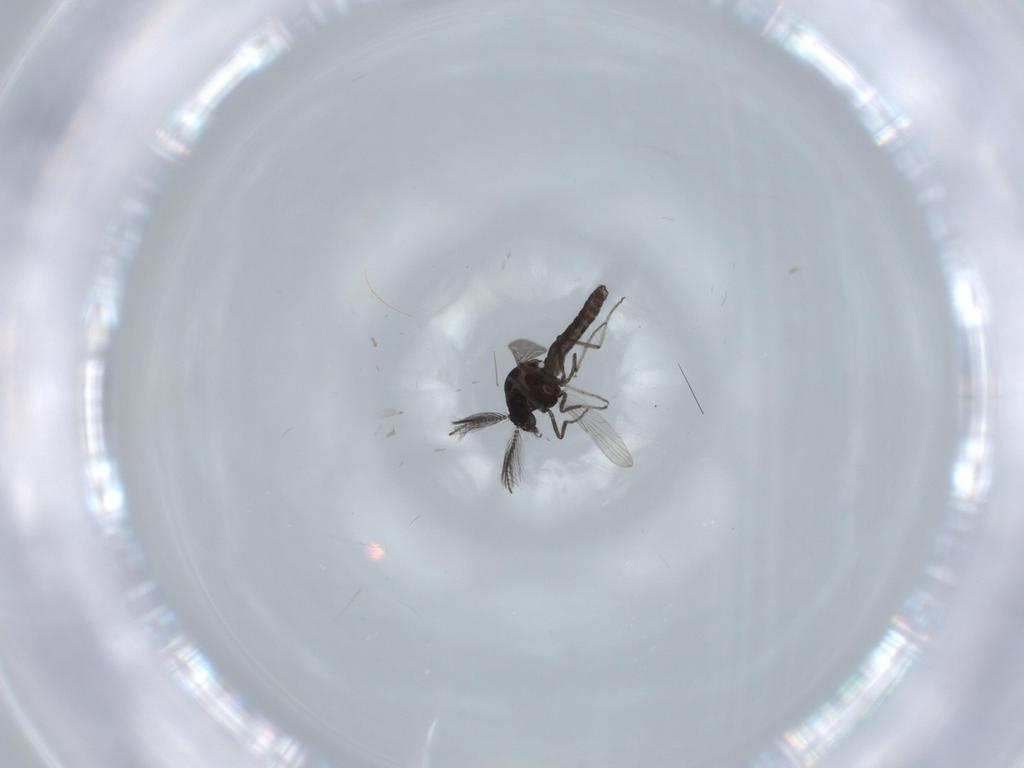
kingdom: Animalia
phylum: Arthropoda
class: Insecta
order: Diptera
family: Ceratopogonidae
